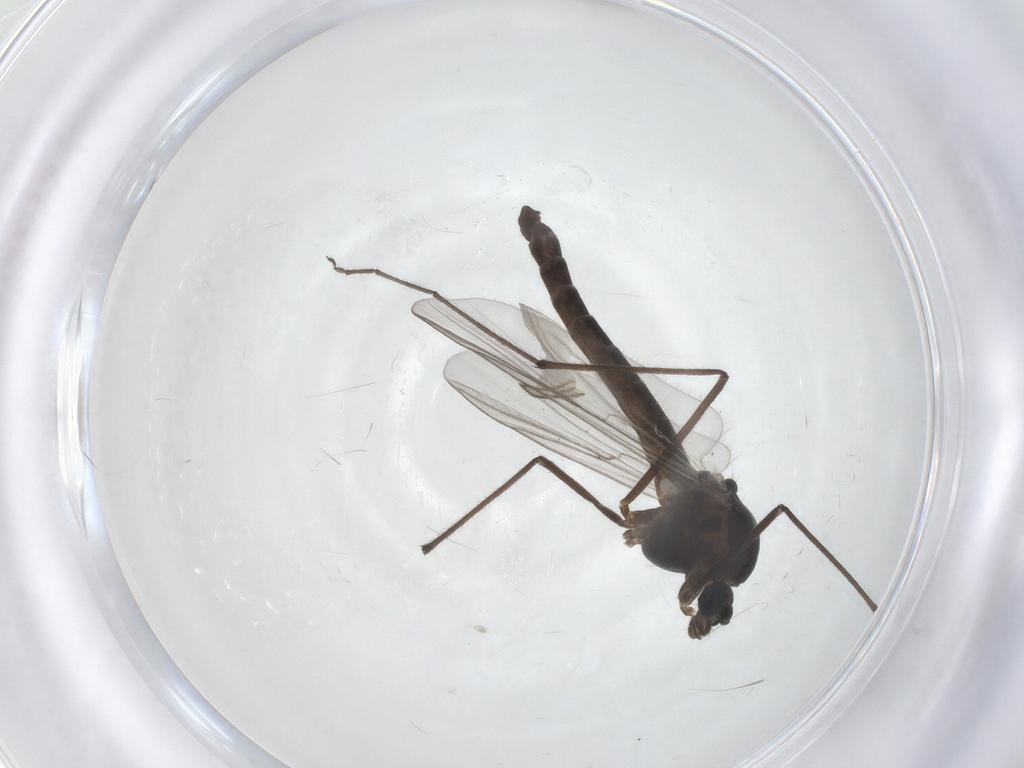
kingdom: Animalia
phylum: Arthropoda
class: Insecta
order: Diptera
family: Chironomidae
